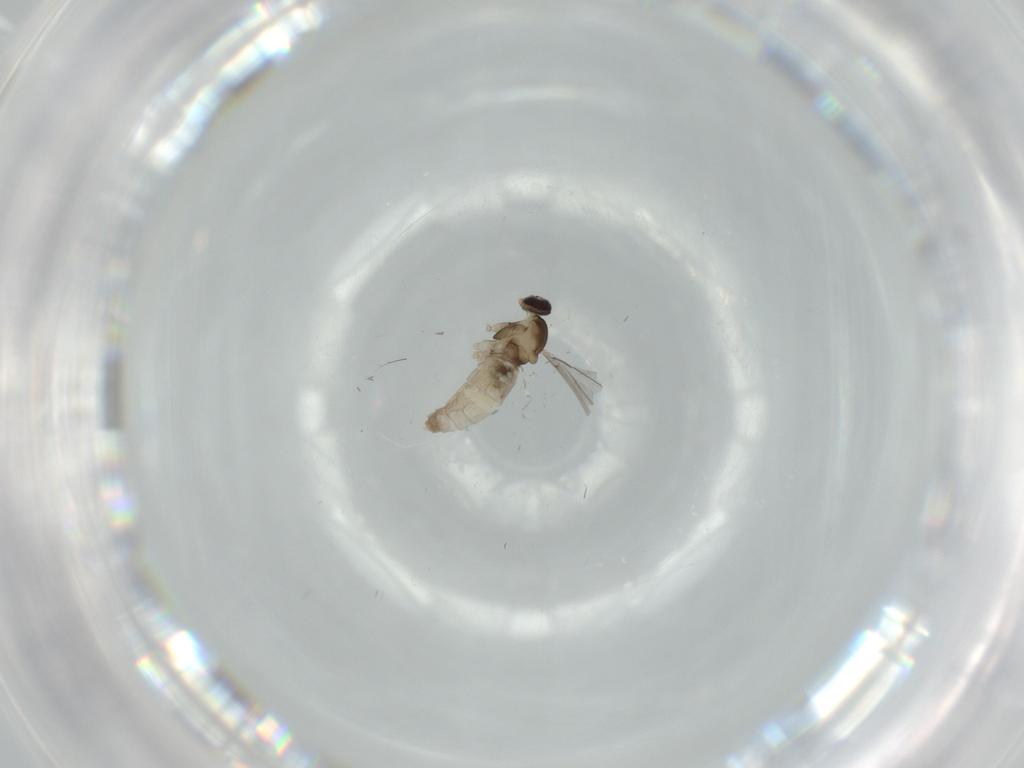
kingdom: Animalia
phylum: Arthropoda
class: Insecta
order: Diptera
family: Cecidomyiidae
